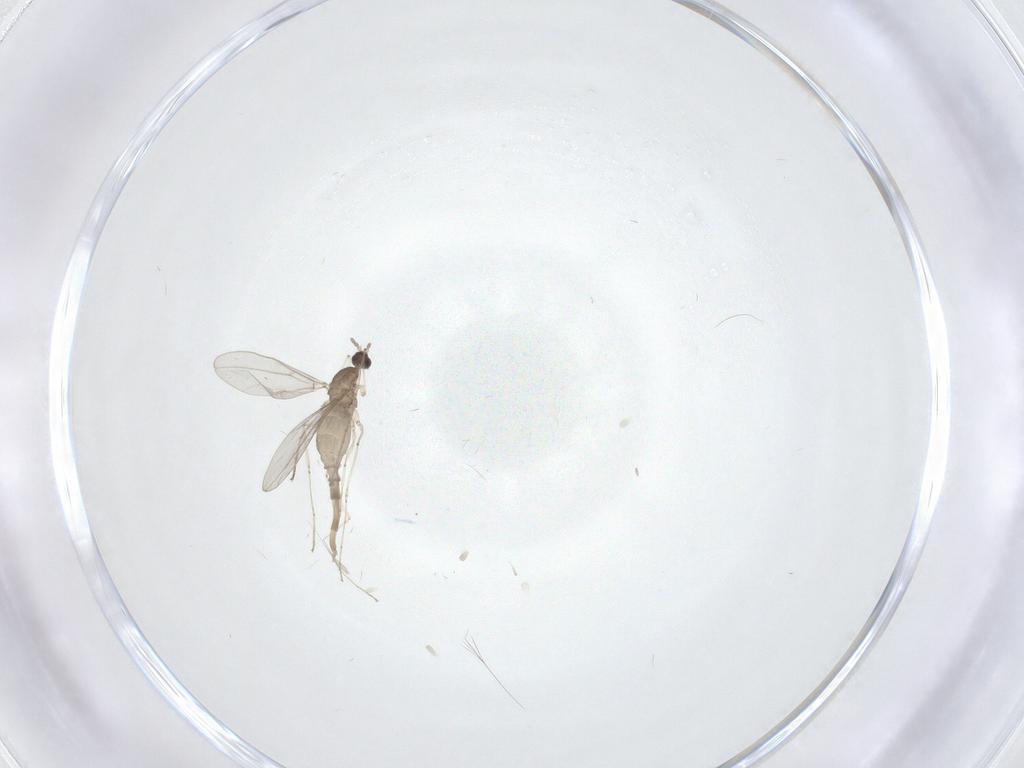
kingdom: Animalia
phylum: Arthropoda
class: Insecta
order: Diptera
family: Cecidomyiidae
